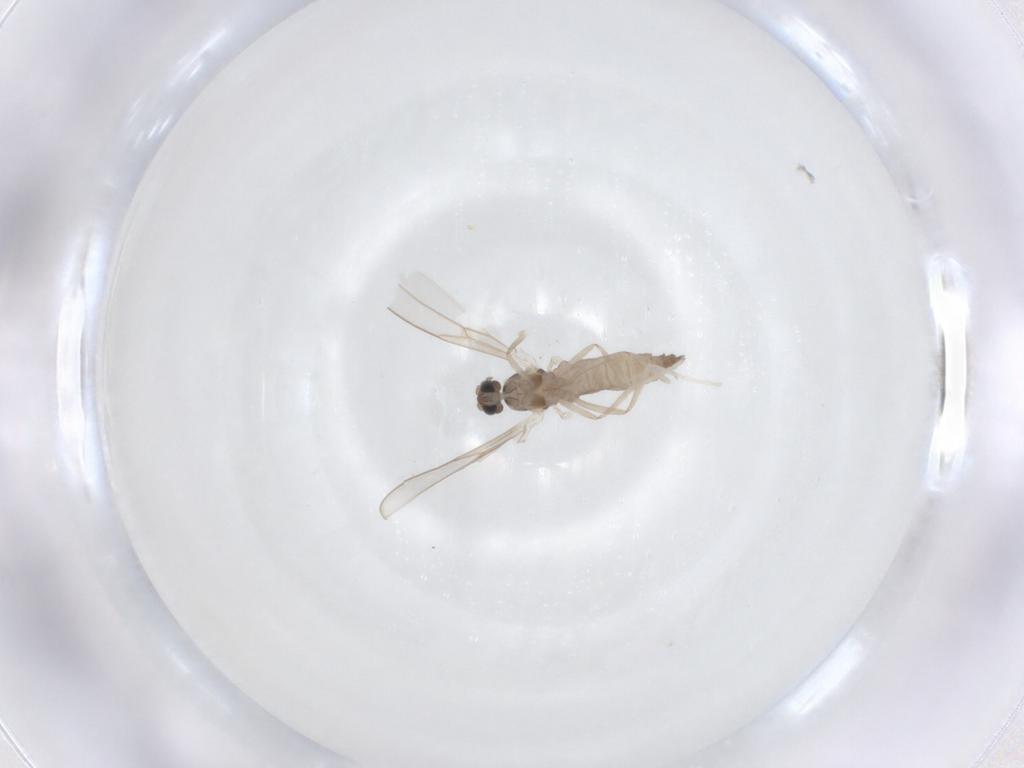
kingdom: Animalia
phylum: Arthropoda
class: Insecta
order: Diptera
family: Cecidomyiidae
